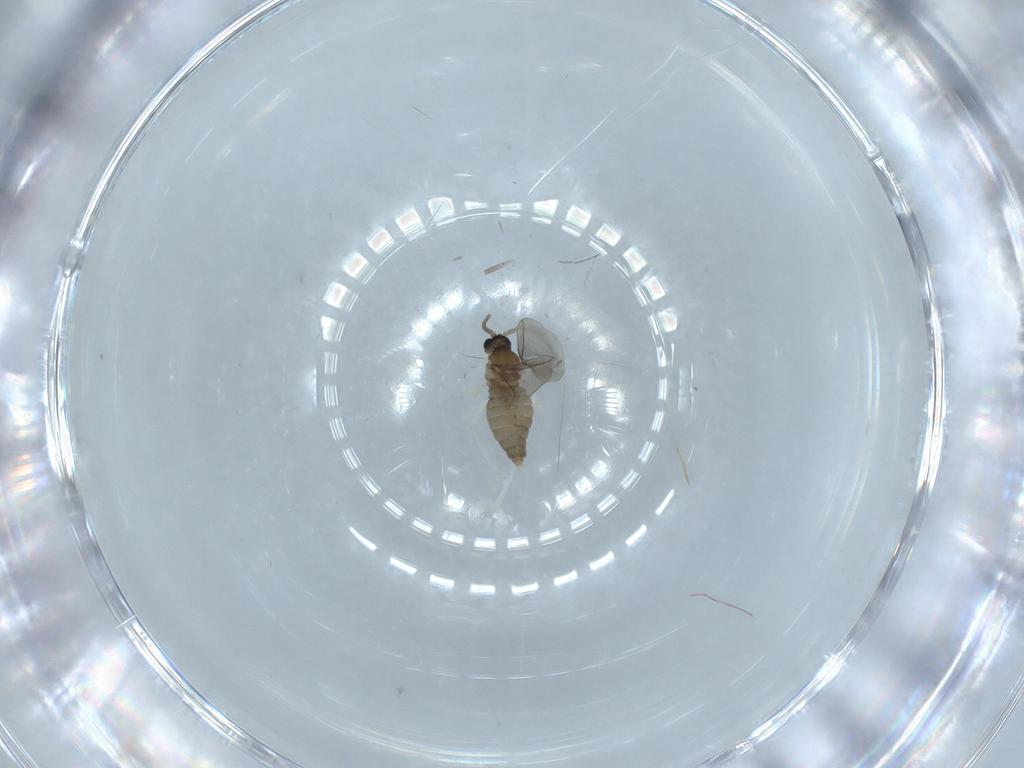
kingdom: Animalia
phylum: Arthropoda
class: Insecta
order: Diptera
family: Cecidomyiidae
